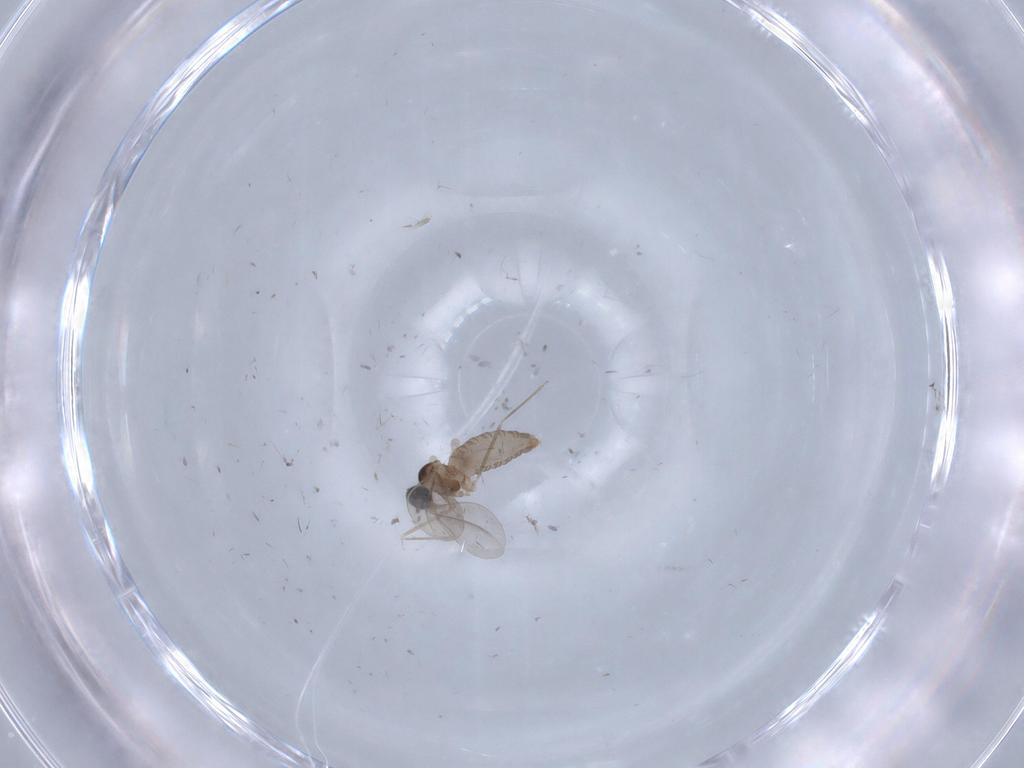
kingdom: Animalia
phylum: Arthropoda
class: Insecta
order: Diptera
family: Cecidomyiidae
